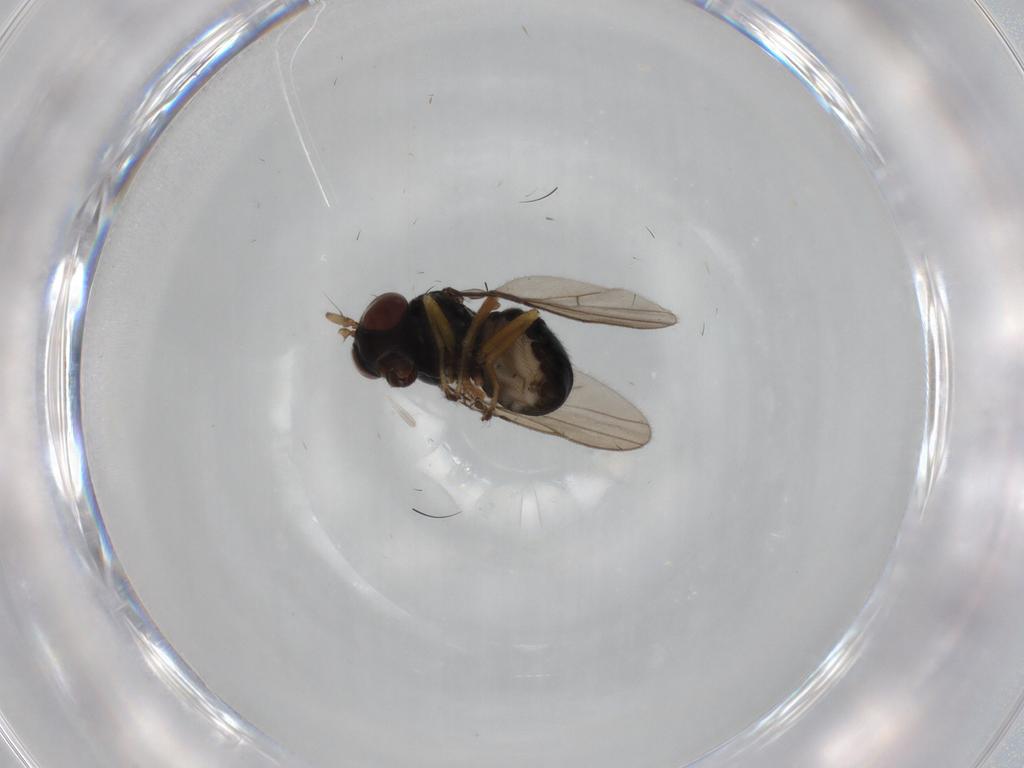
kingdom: Animalia
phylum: Arthropoda
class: Insecta
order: Diptera
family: Ephydridae
